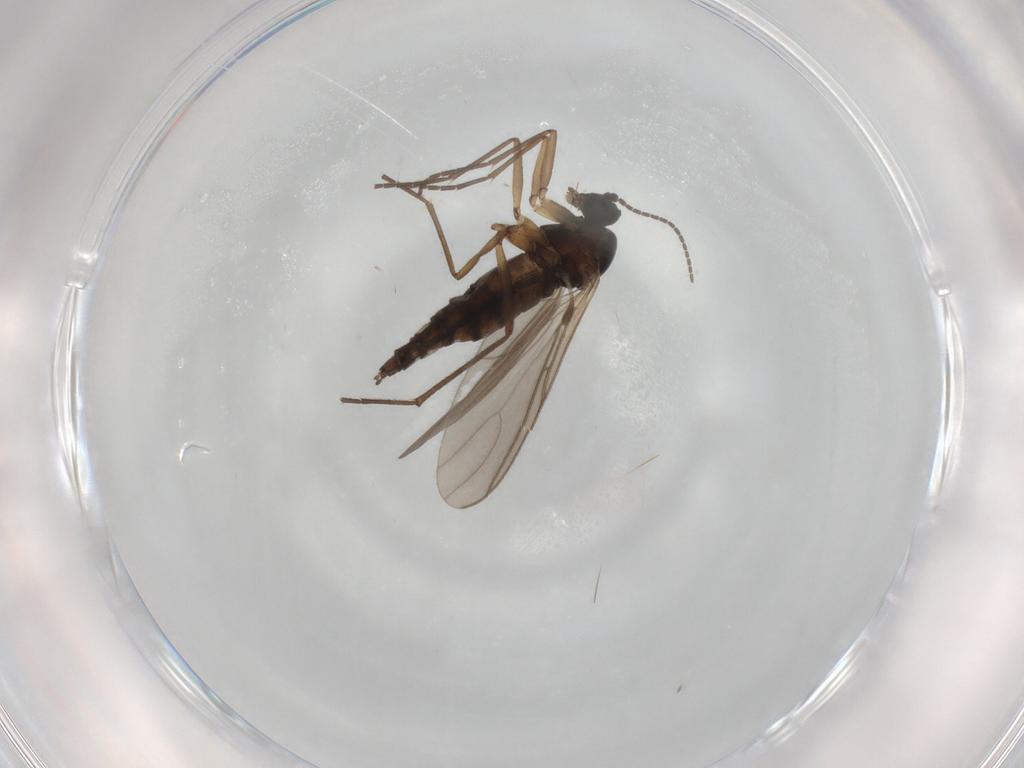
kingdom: Animalia
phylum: Arthropoda
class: Insecta
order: Diptera
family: Sciaridae
